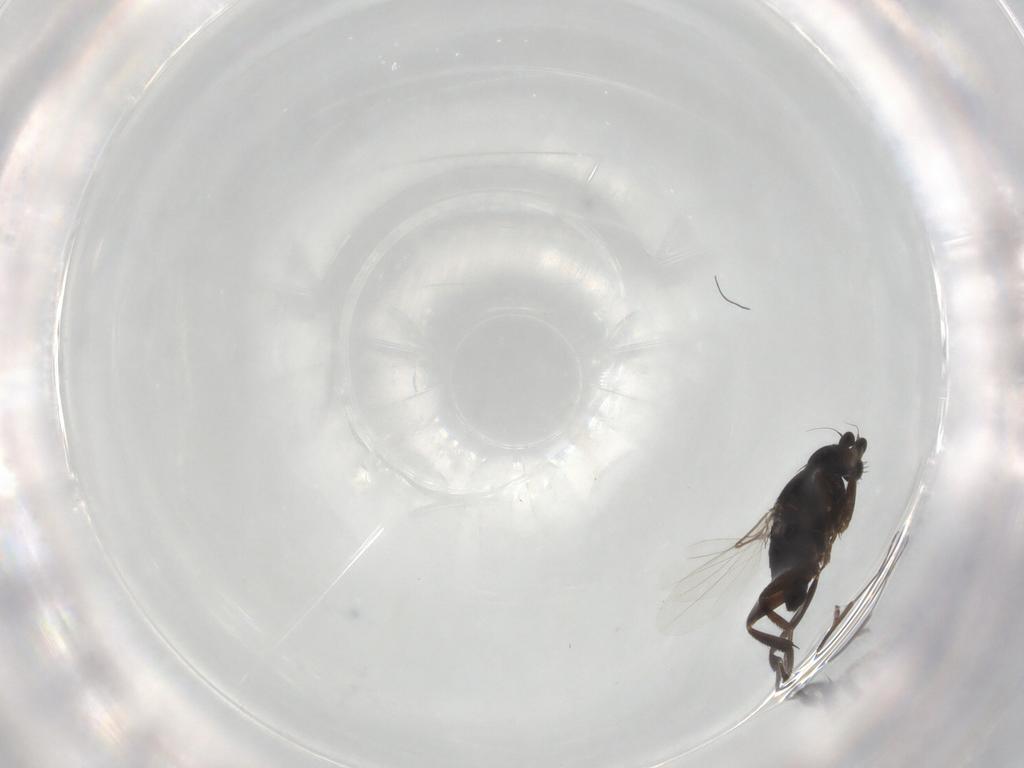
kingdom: Animalia
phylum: Arthropoda
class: Insecta
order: Diptera
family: Phoridae
